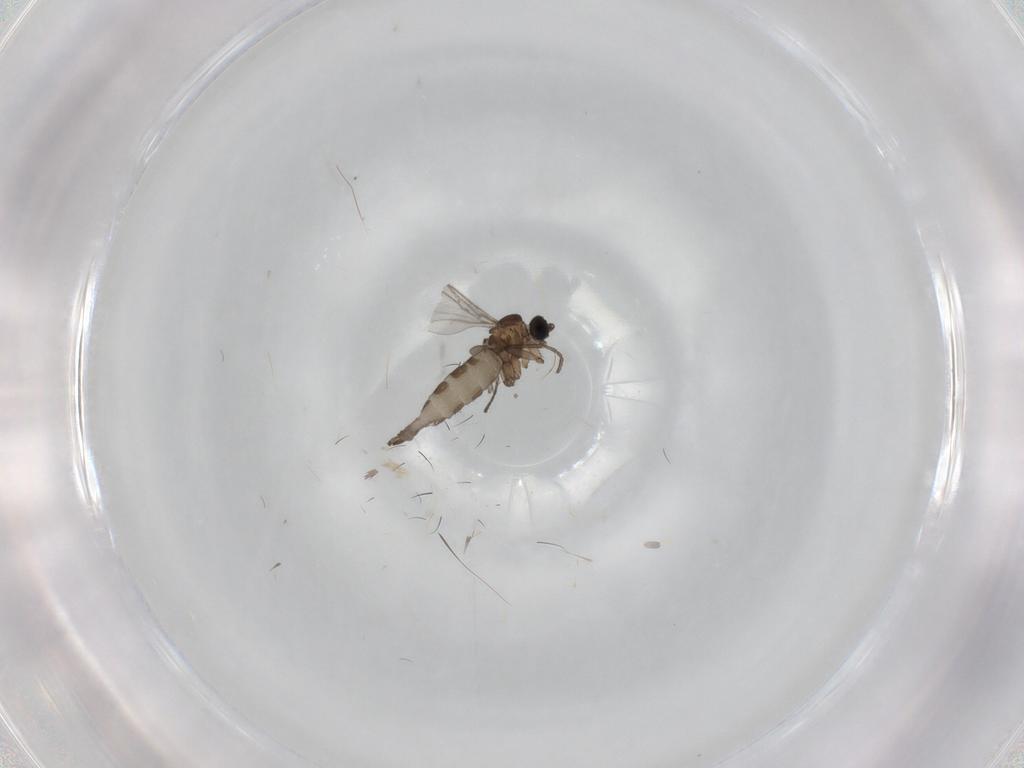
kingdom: Animalia
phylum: Arthropoda
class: Insecta
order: Diptera
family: Sciaridae
